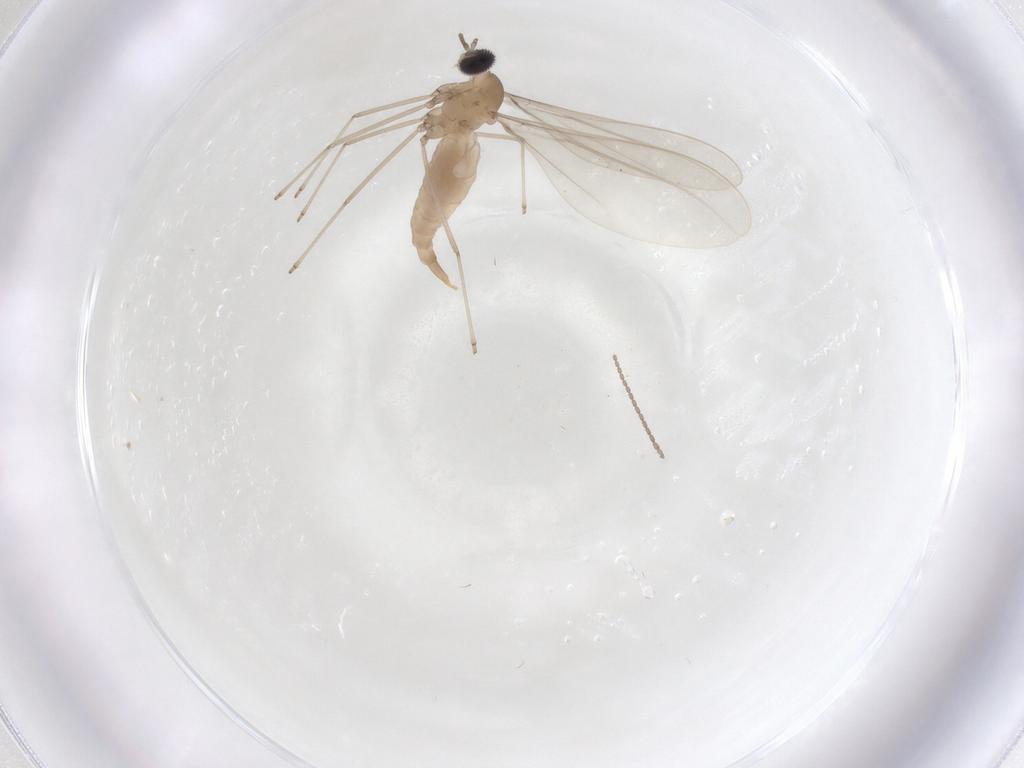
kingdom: Animalia
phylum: Arthropoda
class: Insecta
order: Diptera
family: Cecidomyiidae
